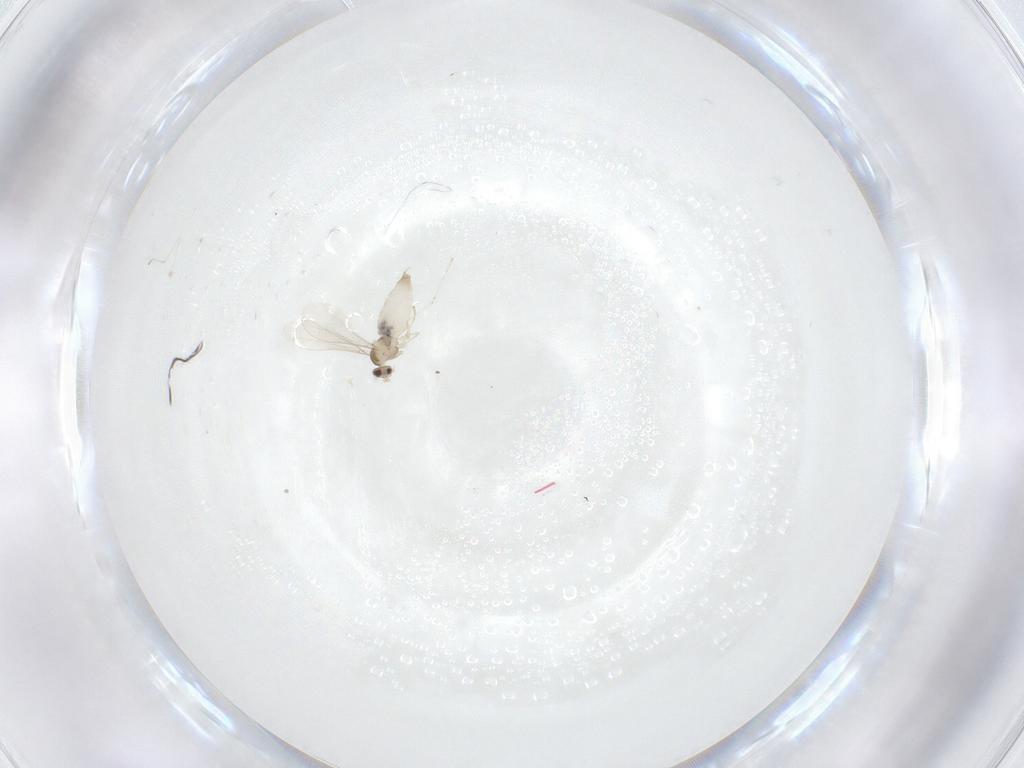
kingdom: Animalia
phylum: Arthropoda
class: Insecta
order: Diptera
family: Cecidomyiidae
